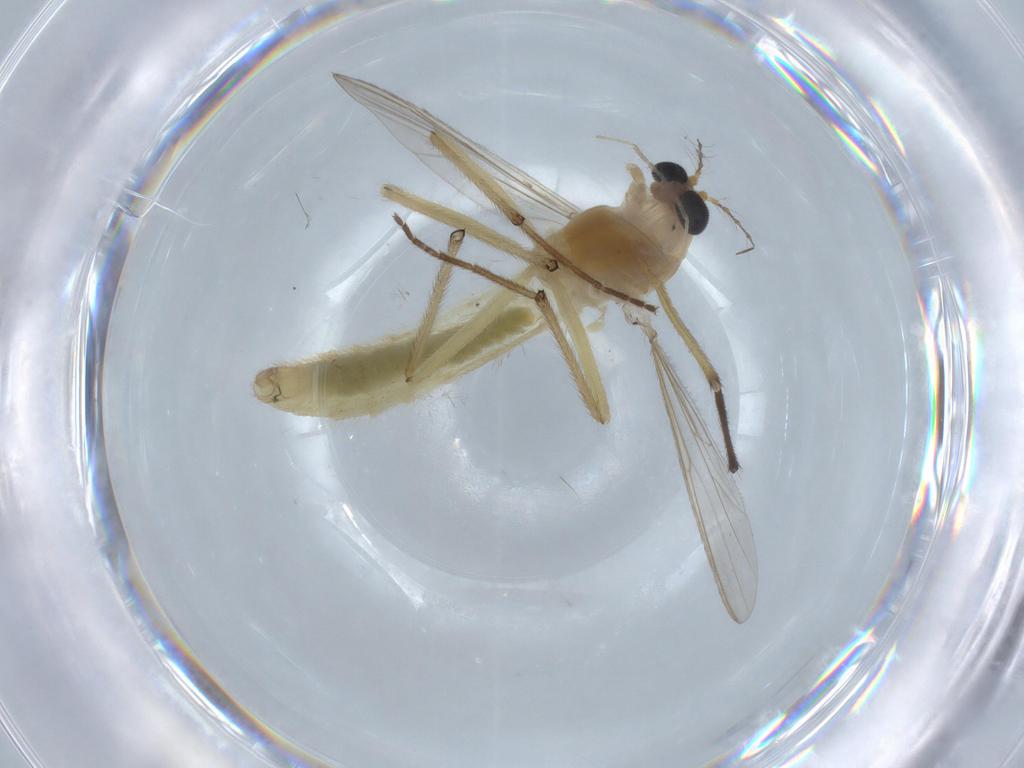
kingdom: Animalia
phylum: Arthropoda
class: Insecta
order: Diptera
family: Chironomidae
